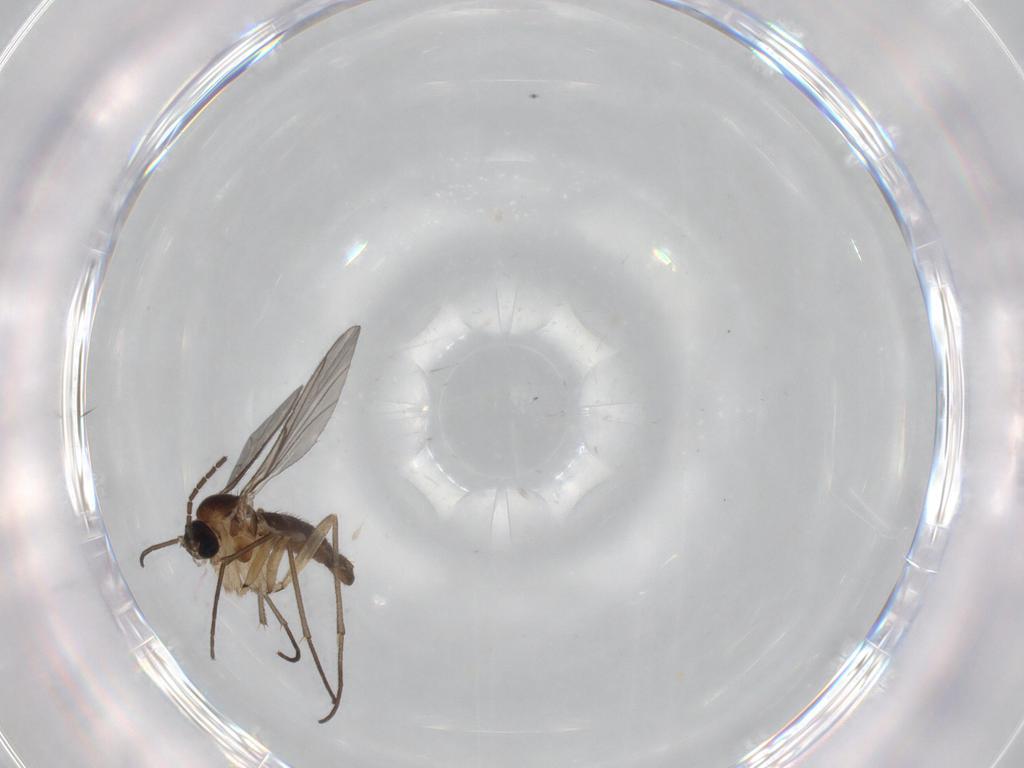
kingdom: Animalia
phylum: Arthropoda
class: Insecta
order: Diptera
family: Sciaridae
